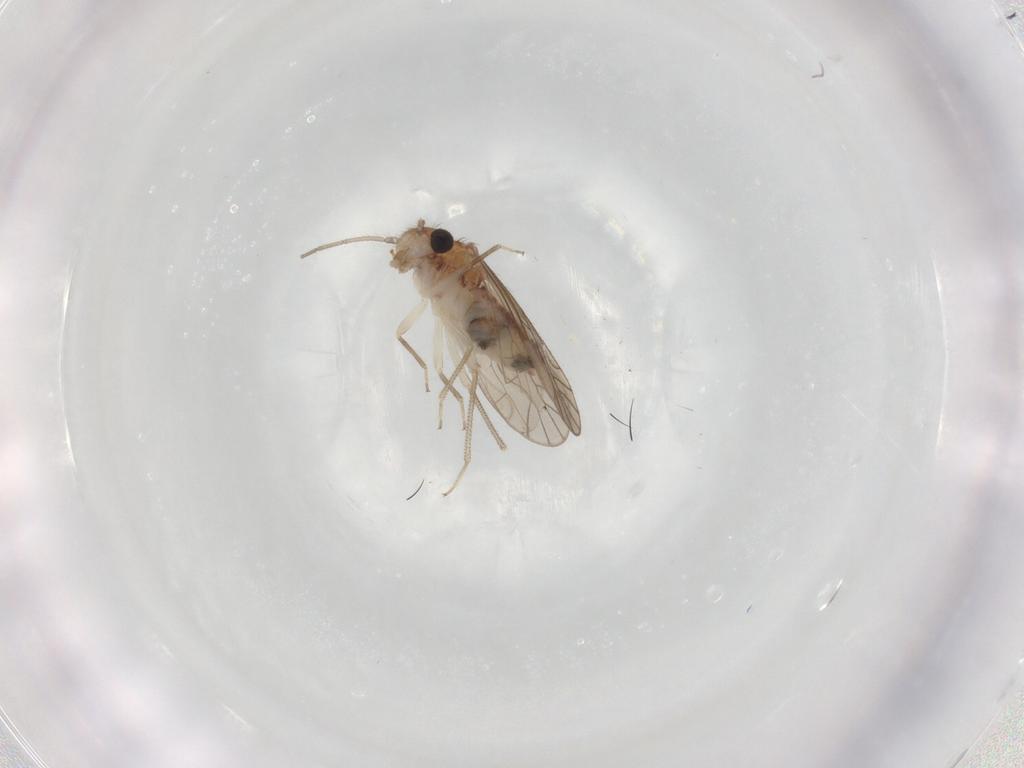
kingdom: Animalia
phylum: Arthropoda
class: Insecta
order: Psocodea
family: Caeciliusidae
